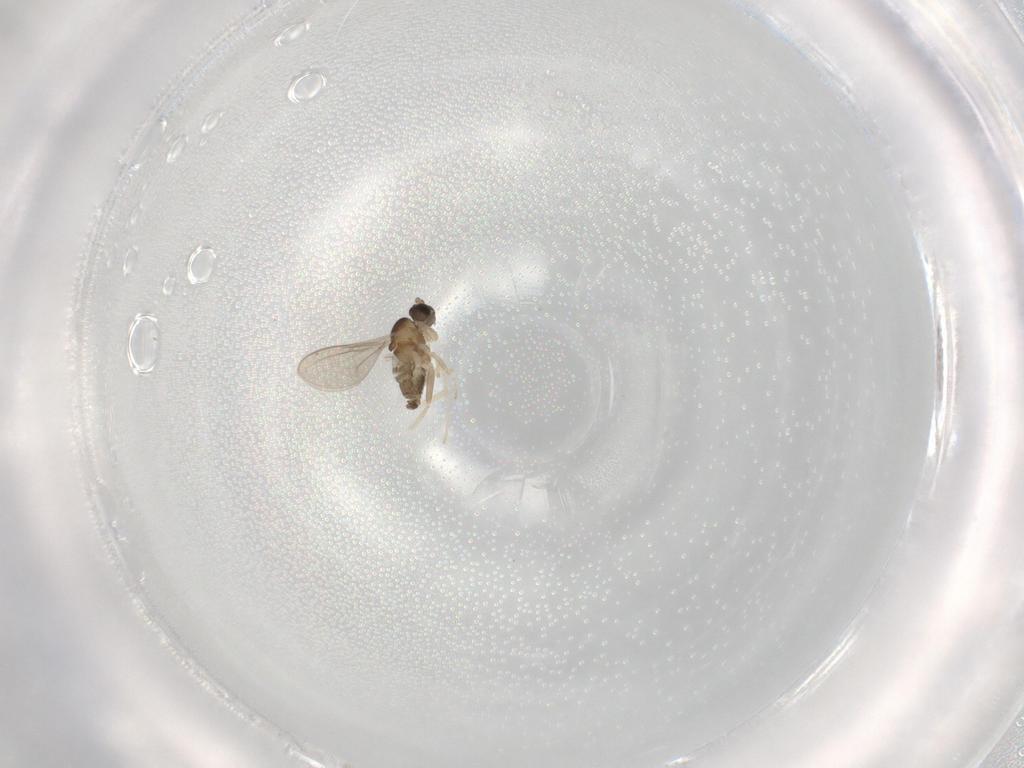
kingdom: Animalia
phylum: Arthropoda
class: Insecta
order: Diptera
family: Cecidomyiidae
